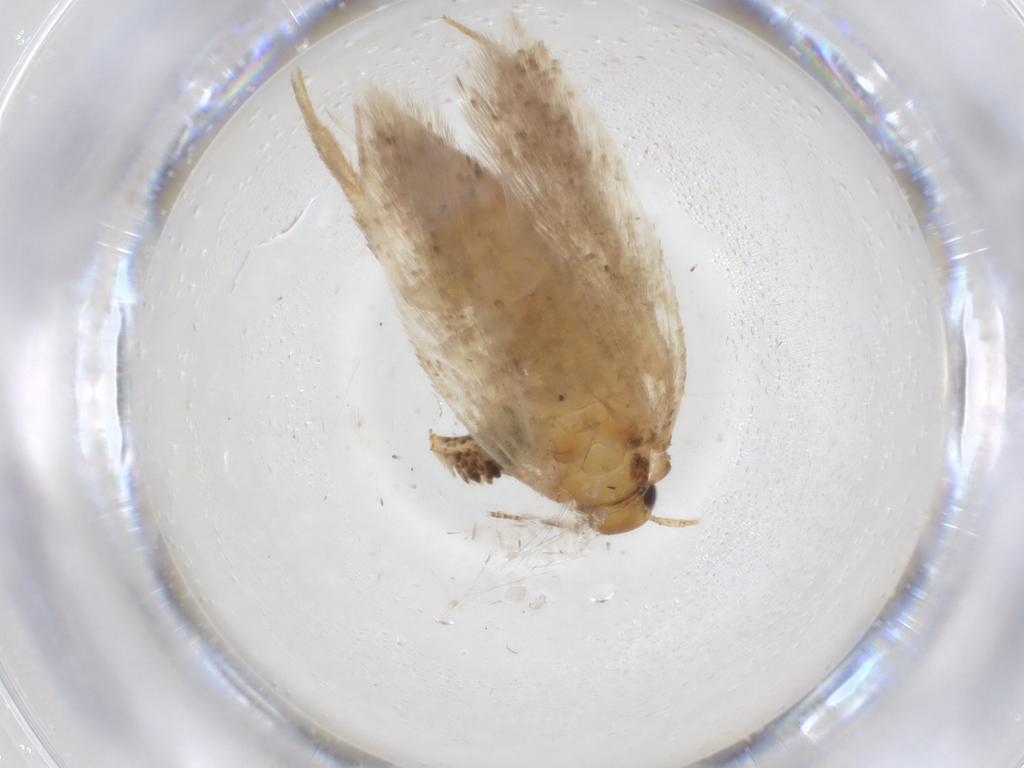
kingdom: Animalia
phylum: Arthropoda
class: Insecta
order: Lepidoptera
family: Gelechiidae
